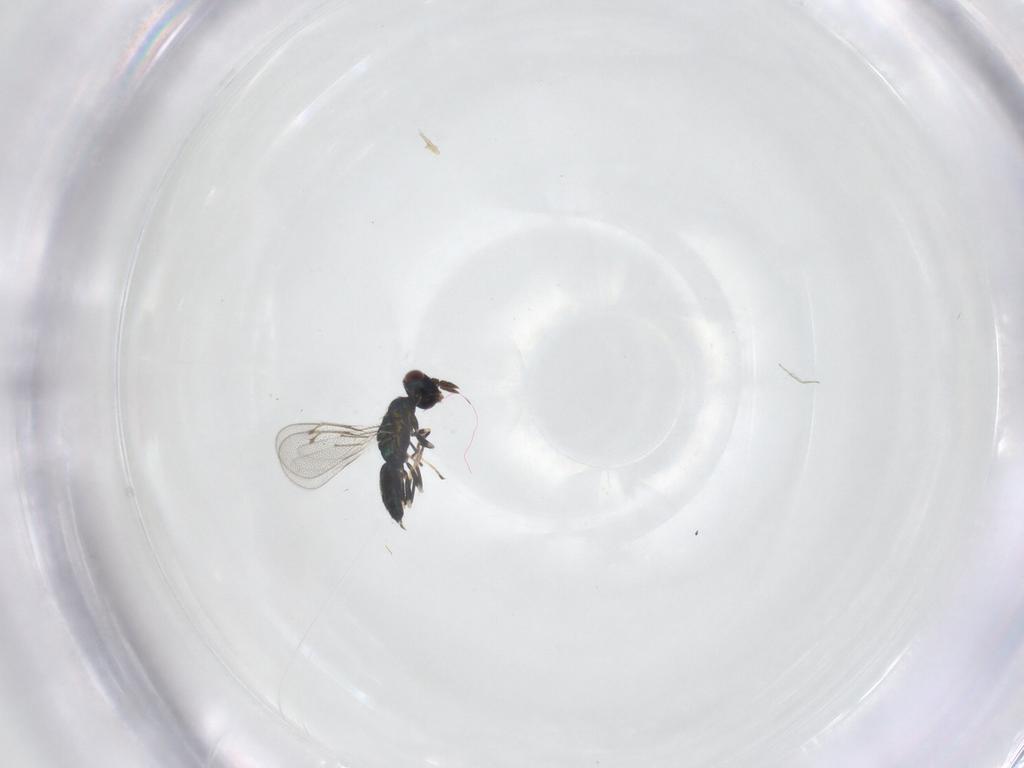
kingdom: Animalia
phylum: Arthropoda
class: Insecta
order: Hymenoptera
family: Eulophidae
